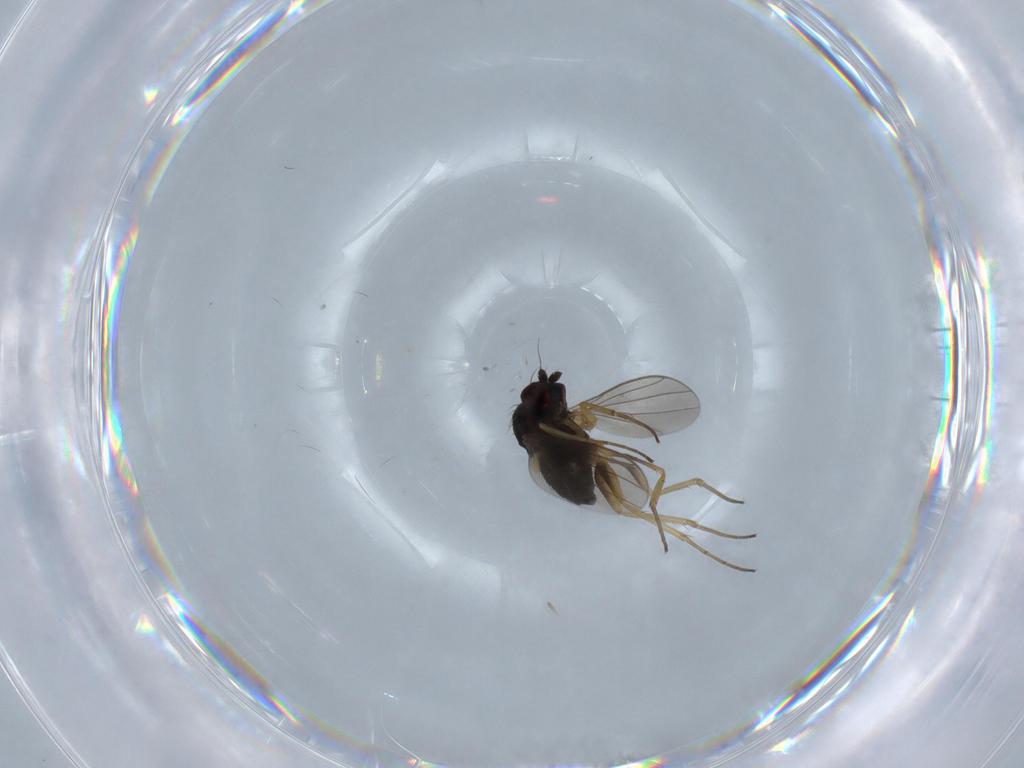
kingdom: Animalia
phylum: Arthropoda
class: Insecta
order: Diptera
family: Dolichopodidae
